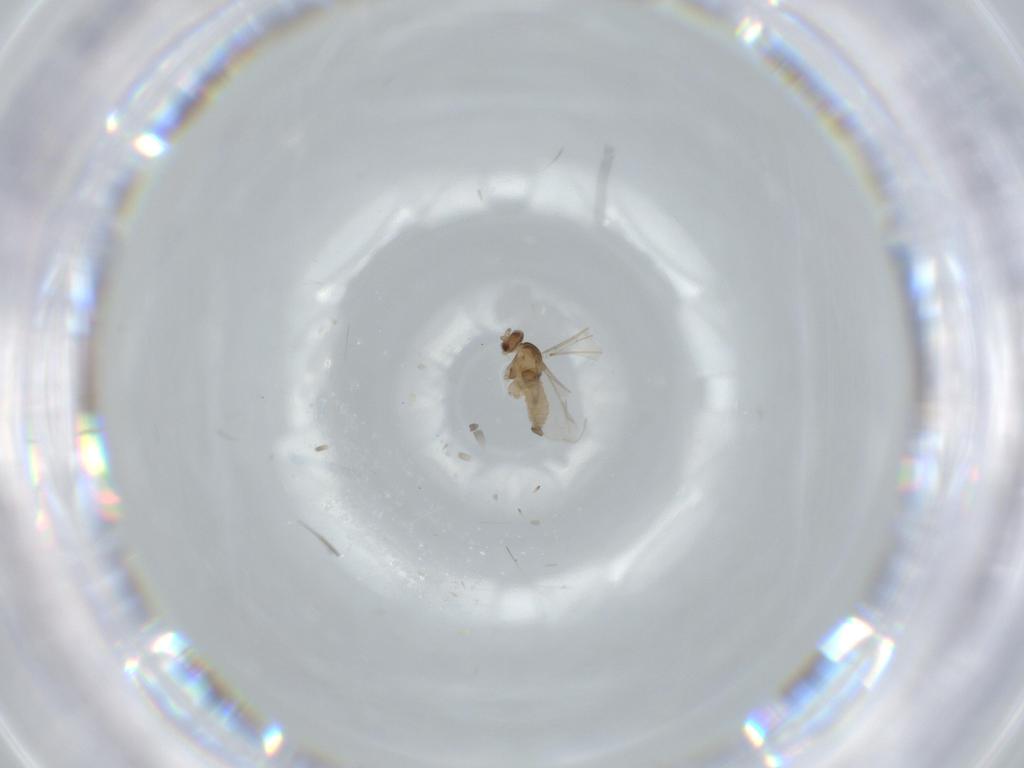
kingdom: Animalia
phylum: Arthropoda
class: Insecta
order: Diptera
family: Cecidomyiidae
